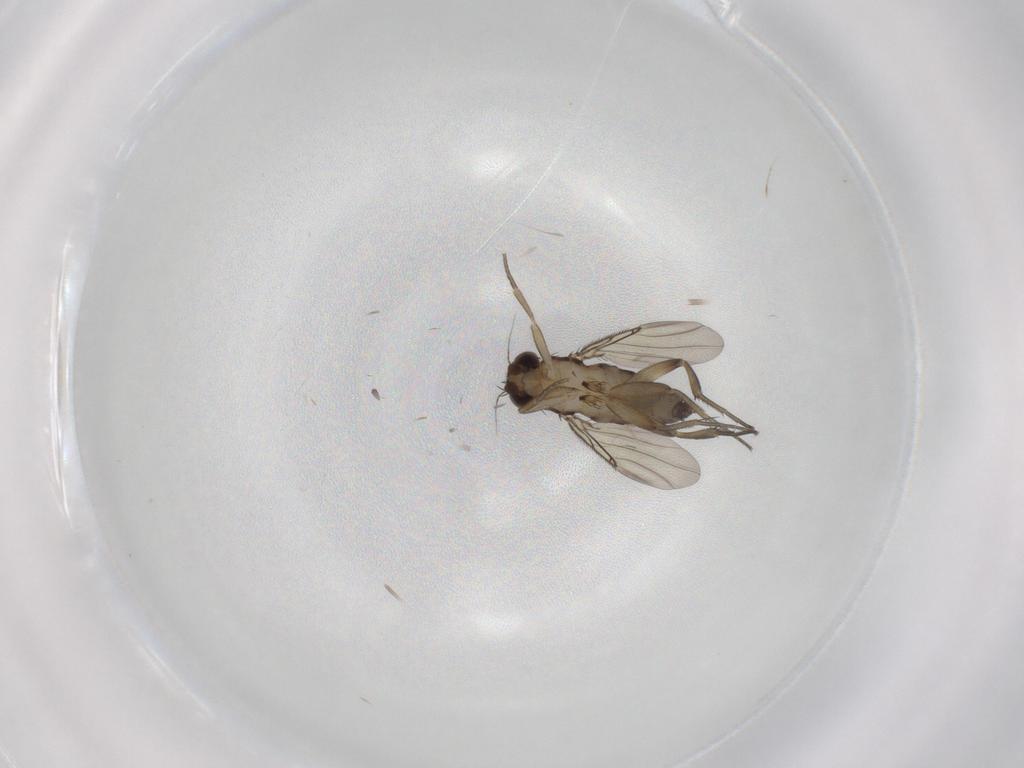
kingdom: Animalia
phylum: Arthropoda
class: Insecta
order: Diptera
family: Phoridae
